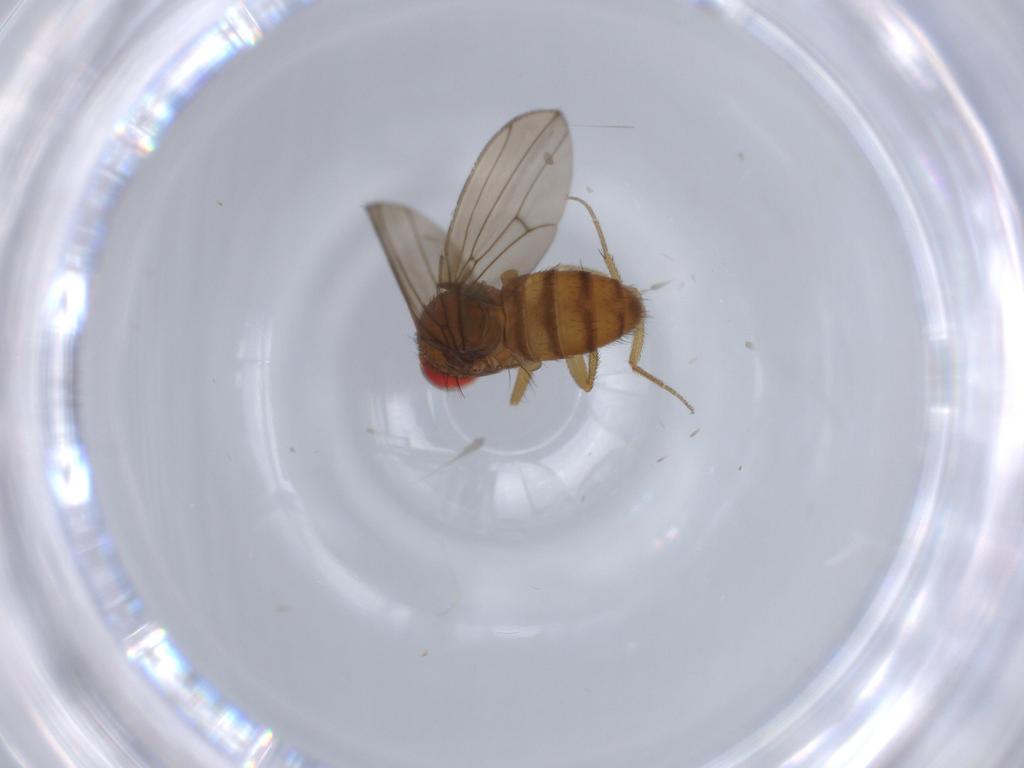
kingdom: Animalia
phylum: Arthropoda
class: Insecta
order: Diptera
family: Drosophilidae
